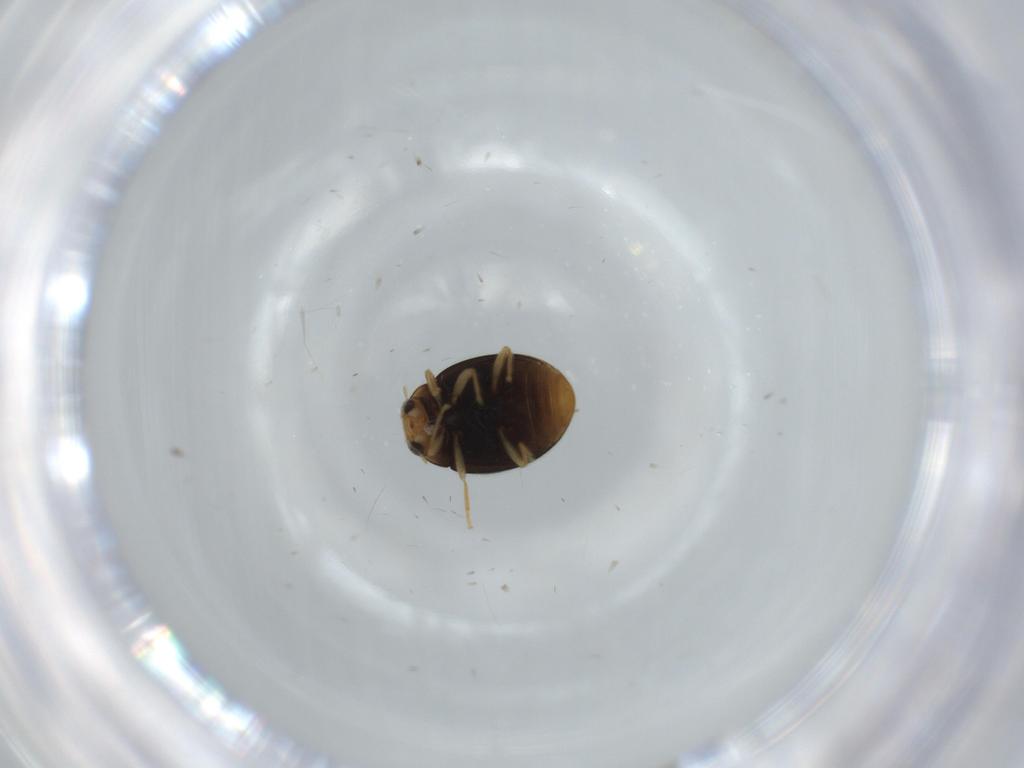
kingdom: Animalia
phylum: Arthropoda
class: Insecta
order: Coleoptera
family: Coccinellidae
